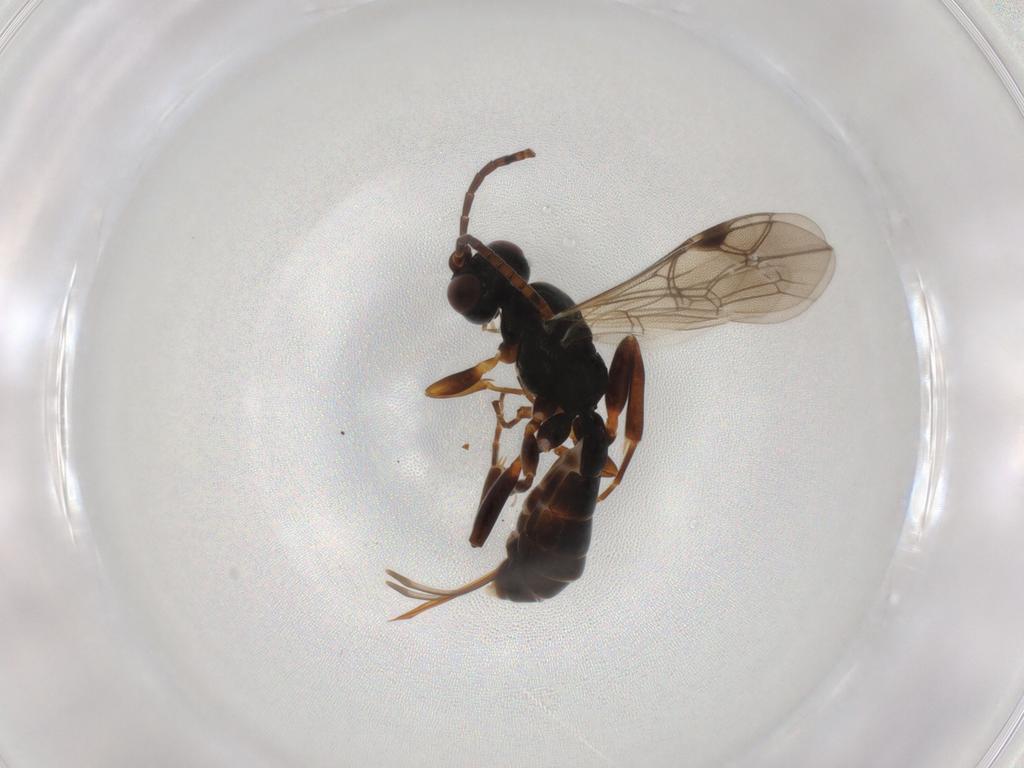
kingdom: Animalia
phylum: Arthropoda
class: Insecta
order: Hymenoptera
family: Ichneumonidae
